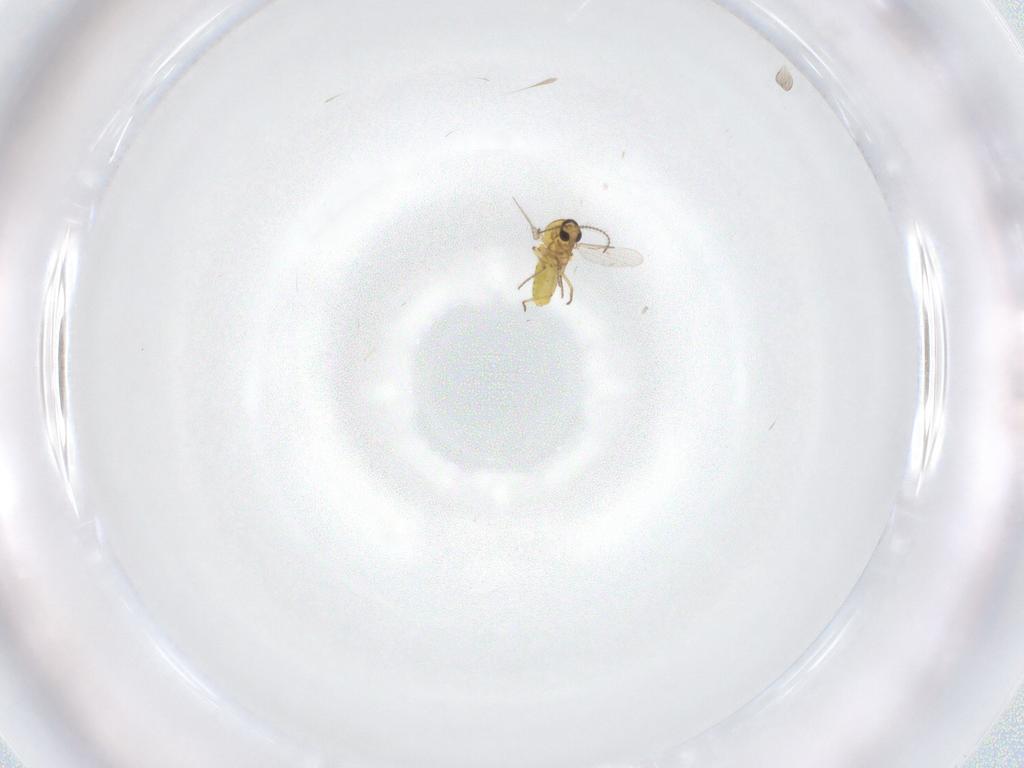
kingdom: Animalia
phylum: Arthropoda
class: Insecta
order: Diptera
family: Ceratopogonidae
